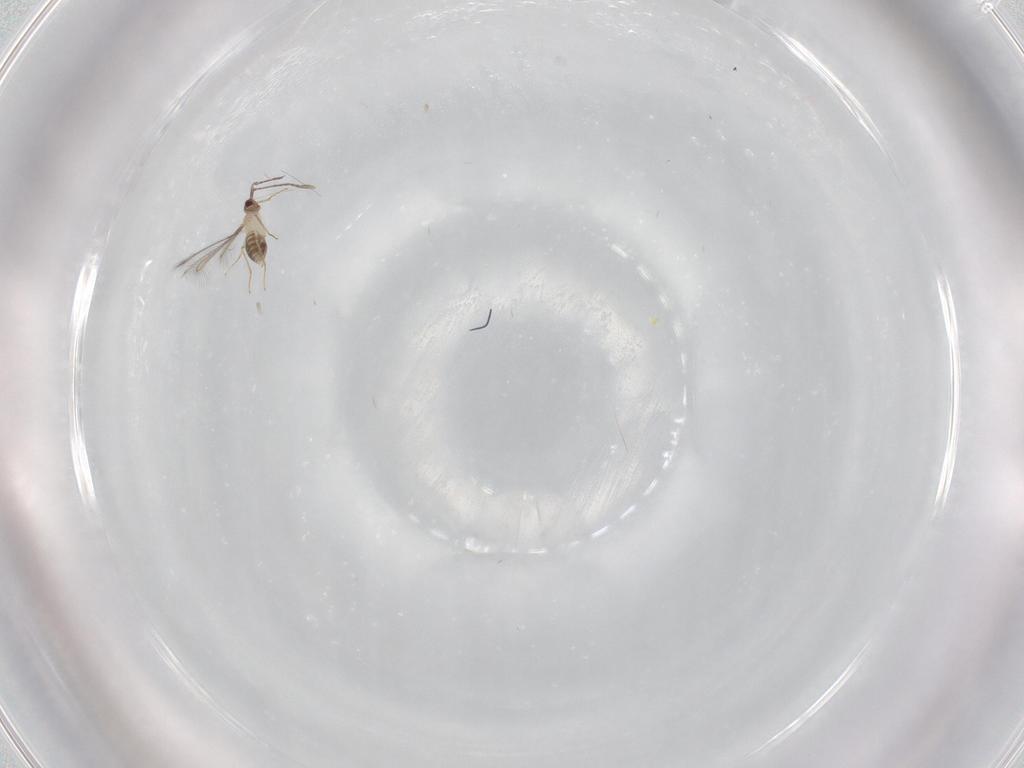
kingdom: Animalia
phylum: Arthropoda
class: Insecta
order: Hymenoptera
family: Mymaridae
